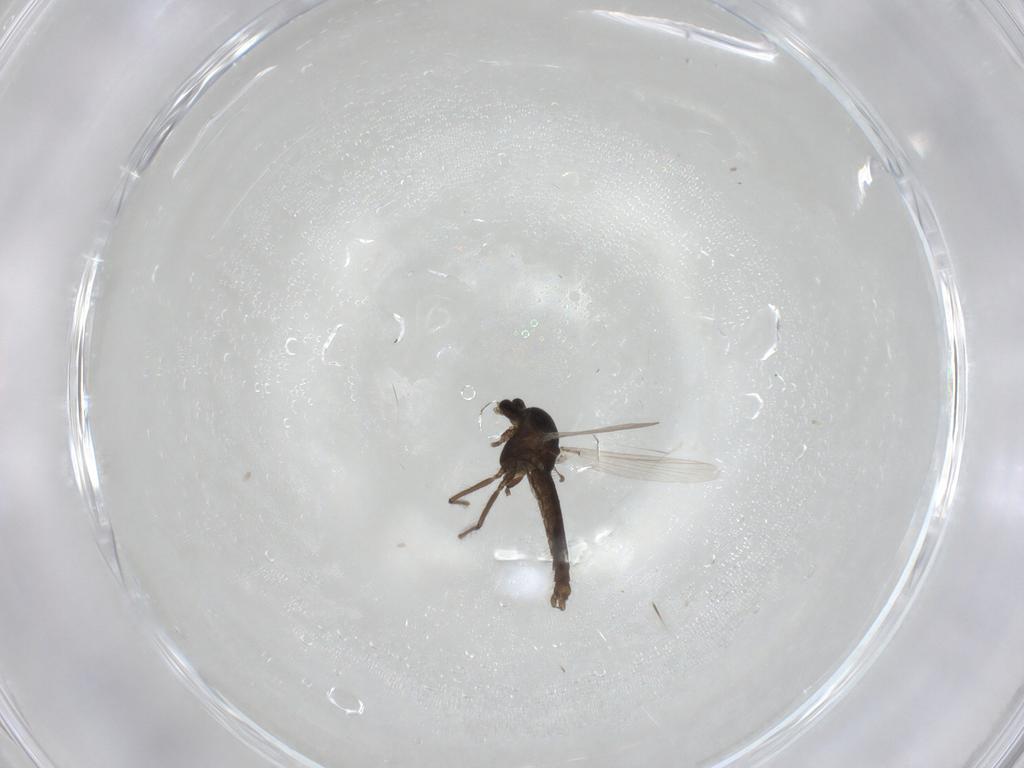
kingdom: Animalia
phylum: Arthropoda
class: Insecta
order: Diptera
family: Chironomidae
